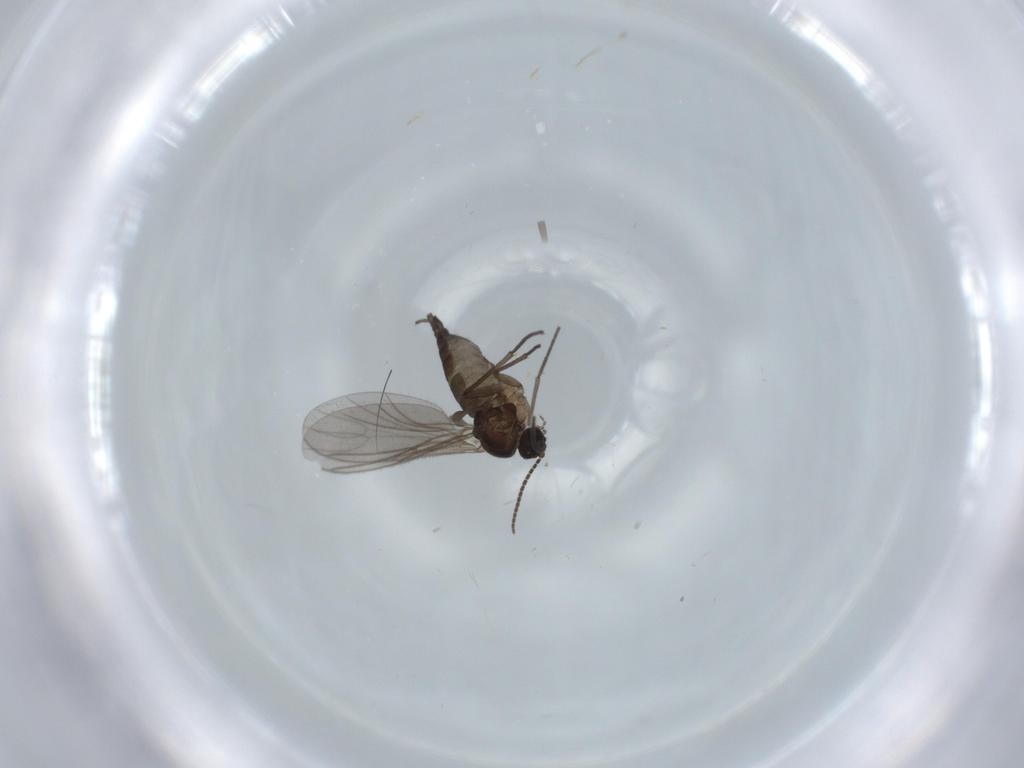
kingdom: Animalia
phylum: Arthropoda
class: Insecta
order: Diptera
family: Sciaridae
